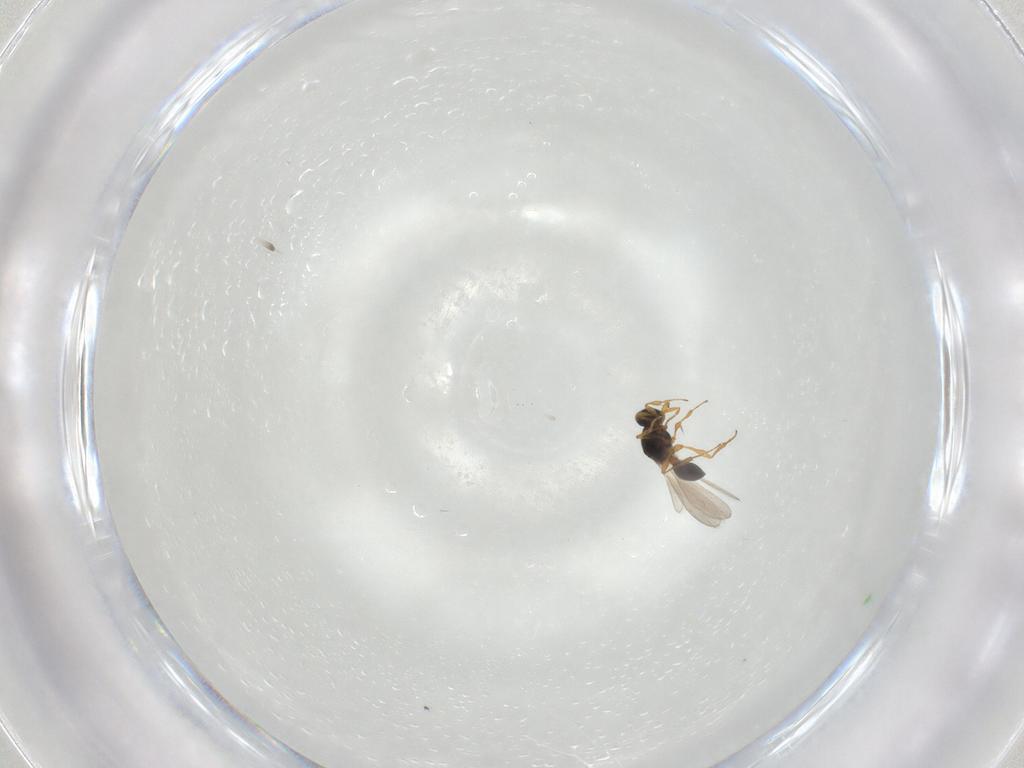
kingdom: Animalia
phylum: Arthropoda
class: Insecta
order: Hymenoptera
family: Platygastridae
